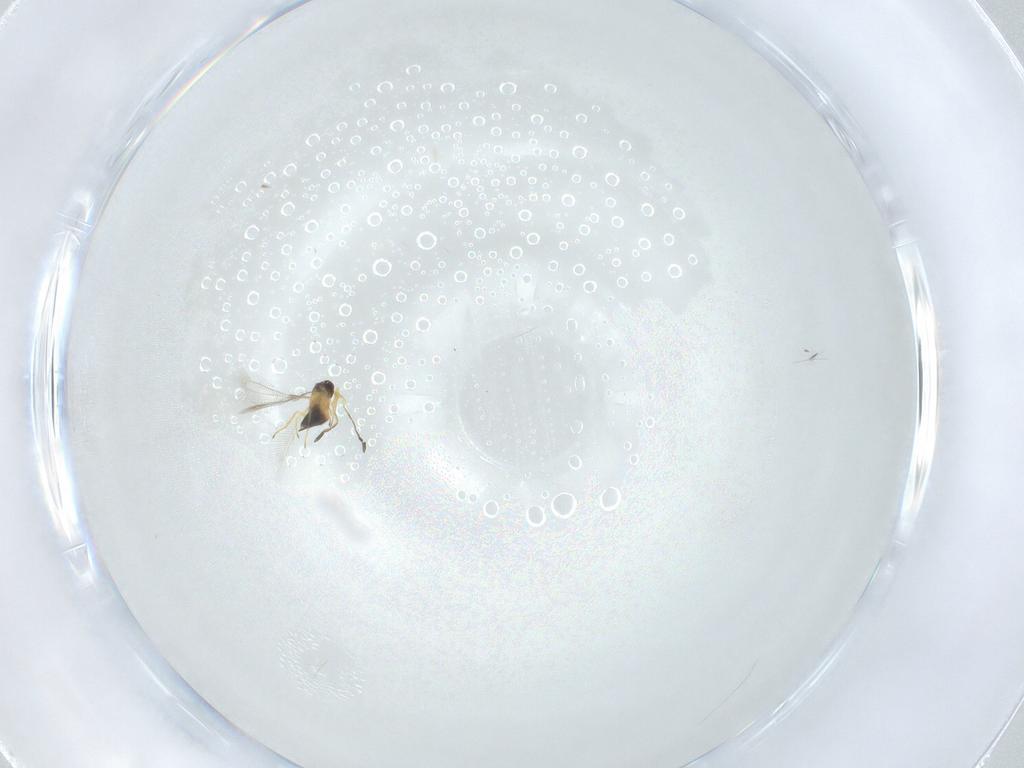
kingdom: Animalia
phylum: Arthropoda
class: Insecta
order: Hymenoptera
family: Mymaridae
